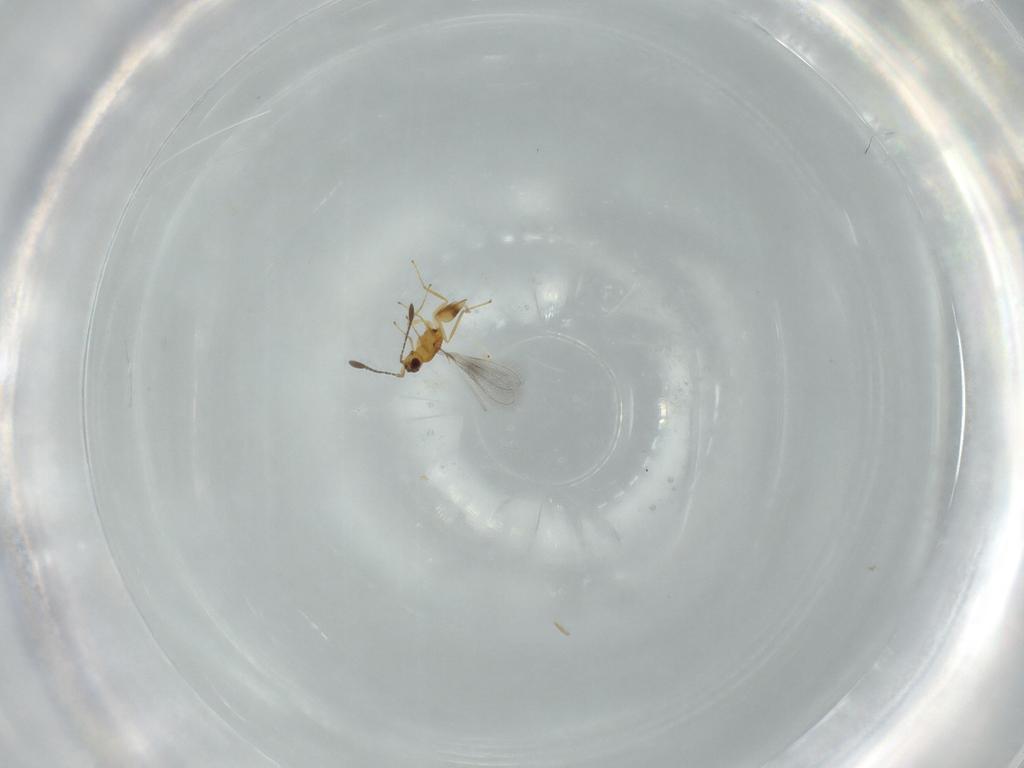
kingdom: Animalia
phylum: Arthropoda
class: Insecta
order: Hymenoptera
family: Mymaridae
